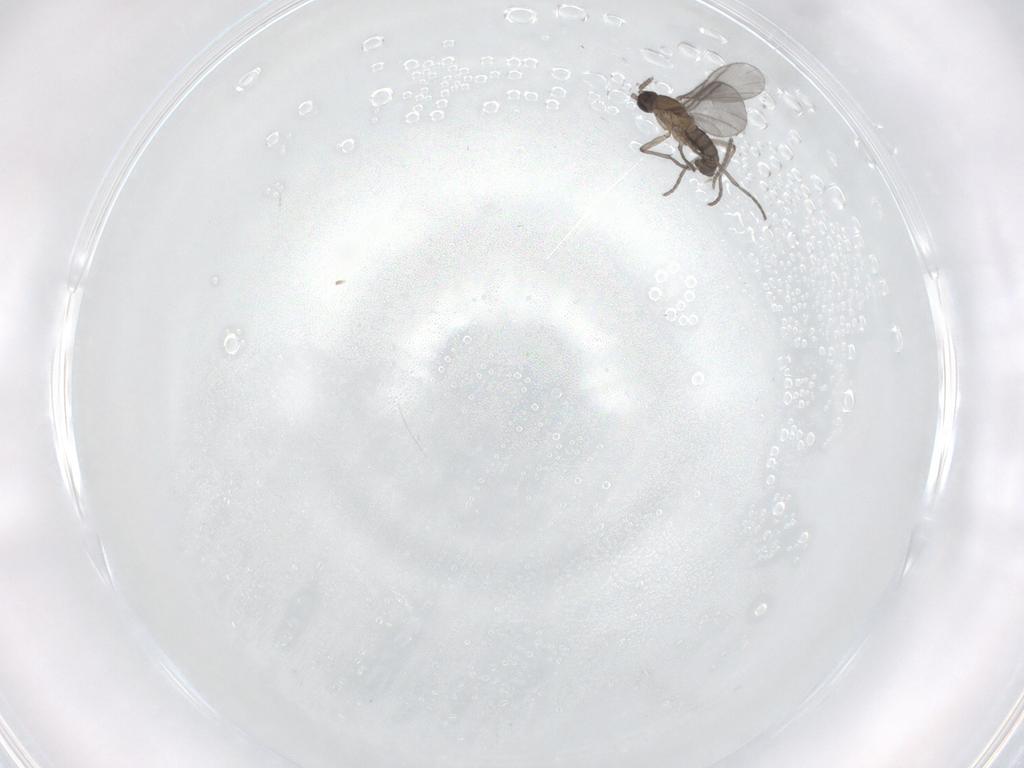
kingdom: Animalia
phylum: Arthropoda
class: Insecta
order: Diptera
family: Sciaridae
